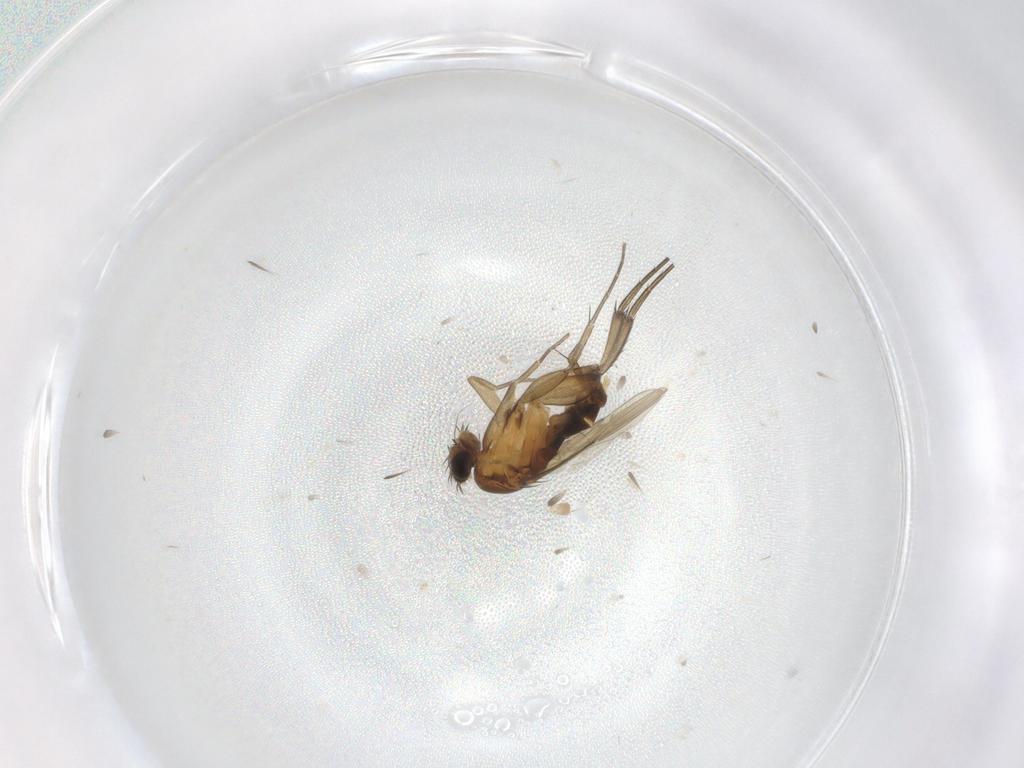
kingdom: Animalia
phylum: Arthropoda
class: Insecta
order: Diptera
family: Phoridae
